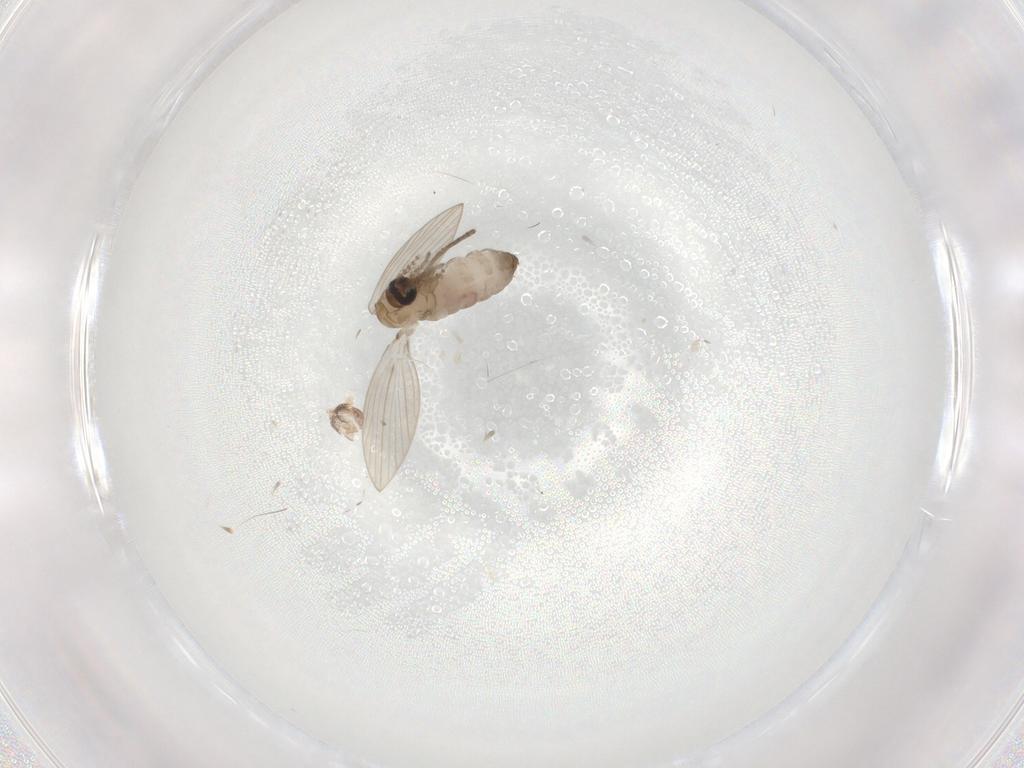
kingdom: Animalia
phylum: Arthropoda
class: Insecta
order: Diptera
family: Psychodidae
